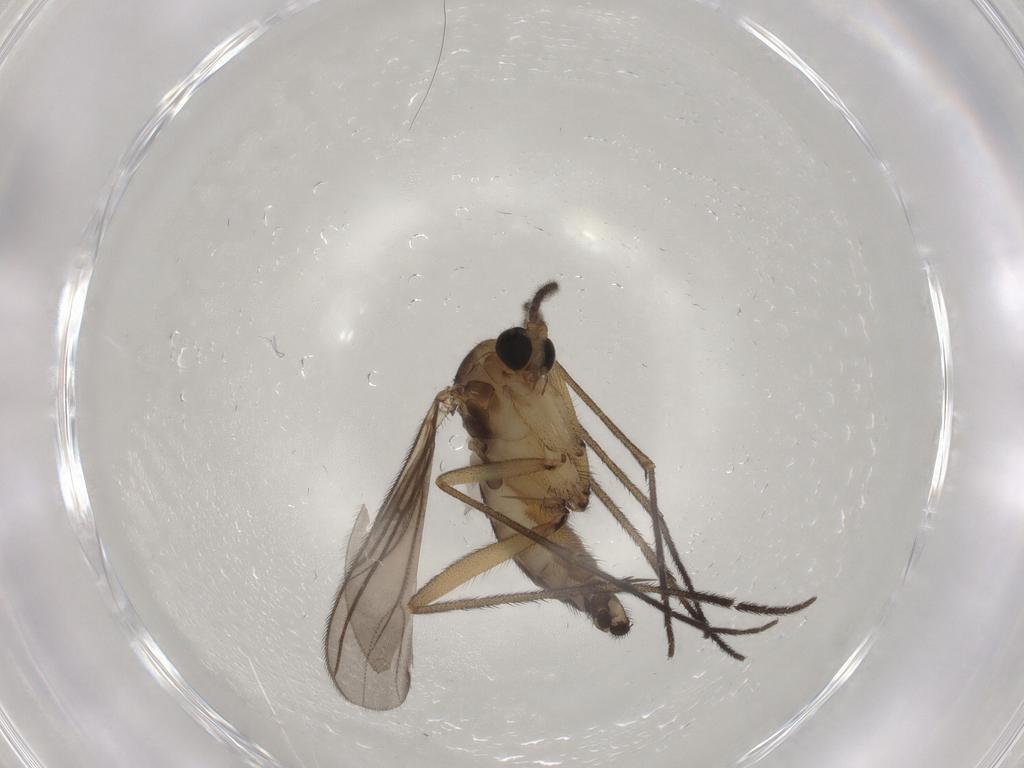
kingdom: Animalia
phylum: Arthropoda
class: Insecta
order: Diptera
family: Sciaridae
